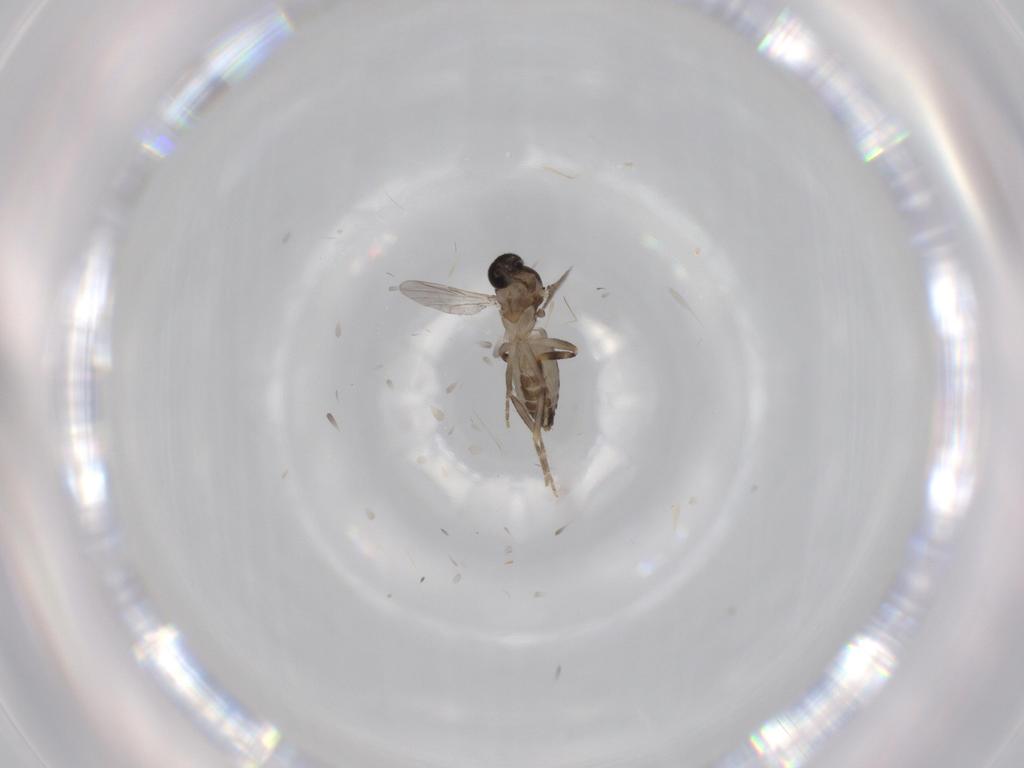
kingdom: Animalia
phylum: Arthropoda
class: Insecta
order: Diptera
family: Ceratopogonidae
